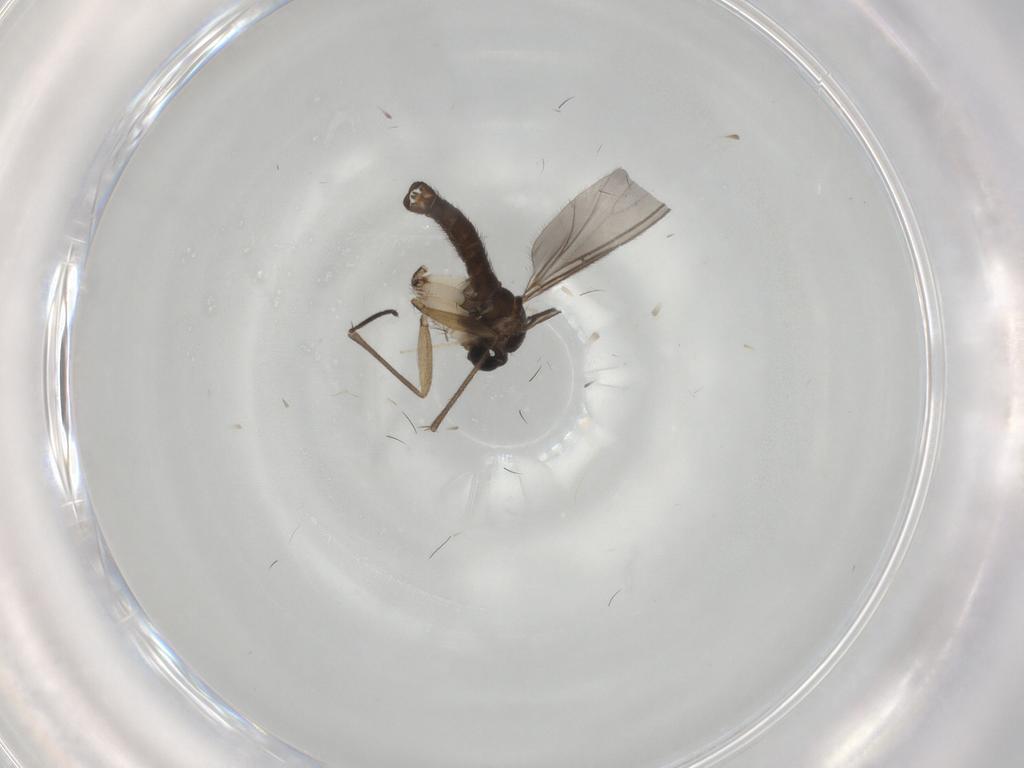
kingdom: Animalia
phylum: Arthropoda
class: Insecta
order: Diptera
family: Sciaridae
